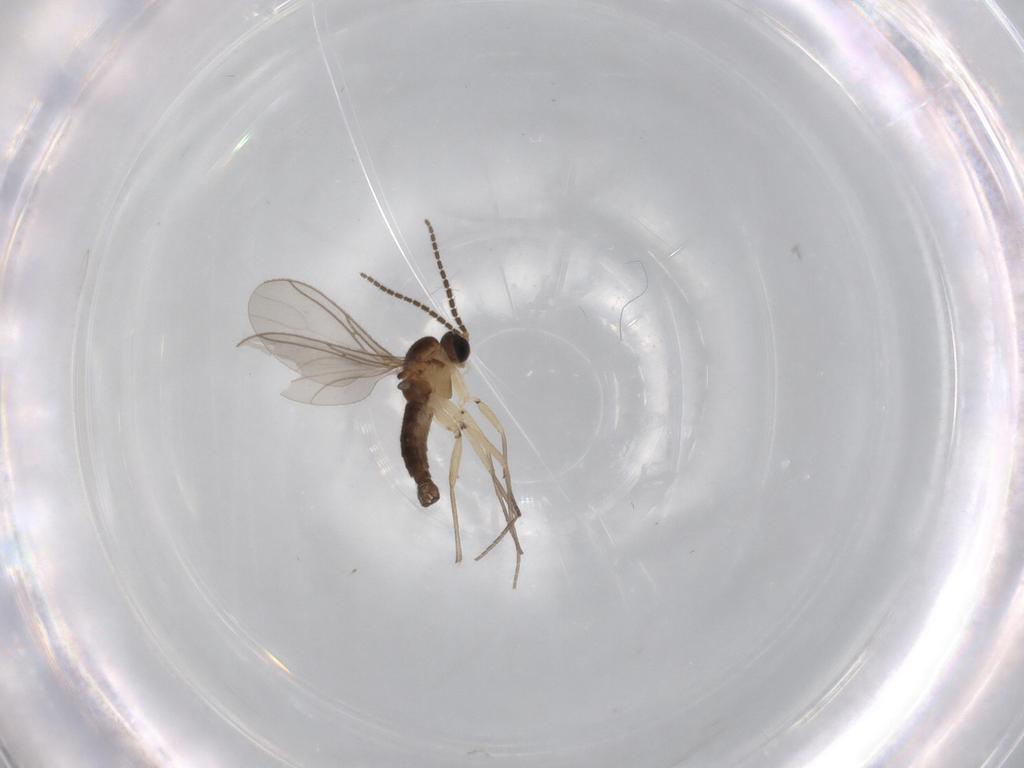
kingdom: Animalia
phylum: Arthropoda
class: Insecta
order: Diptera
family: Sciaridae
